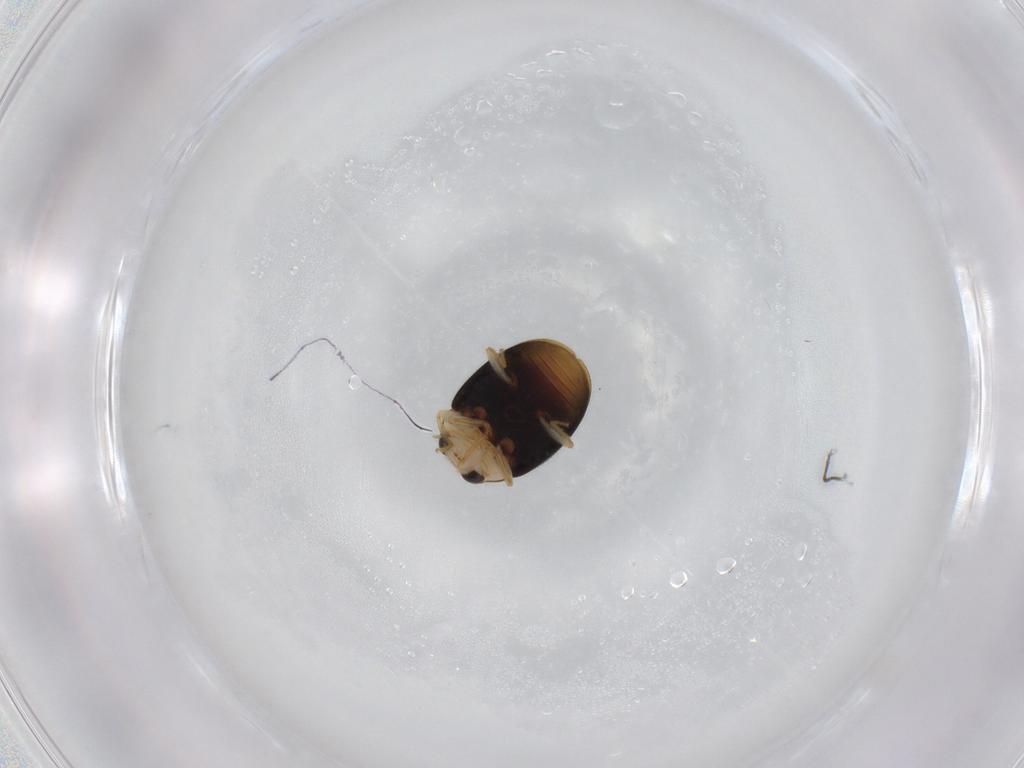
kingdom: Animalia
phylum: Arthropoda
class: Insecta
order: Coleoptera
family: Coccinellidae
